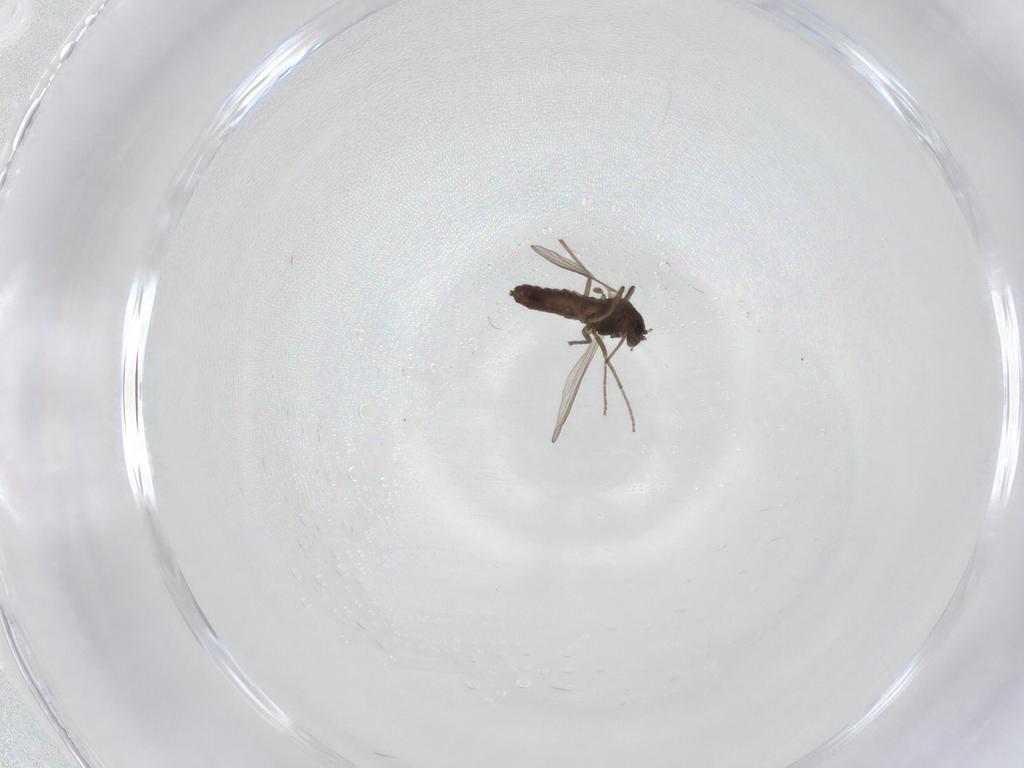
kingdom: Animalia
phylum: Arthropoda
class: Insecta
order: Diptera
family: Chironomidae
